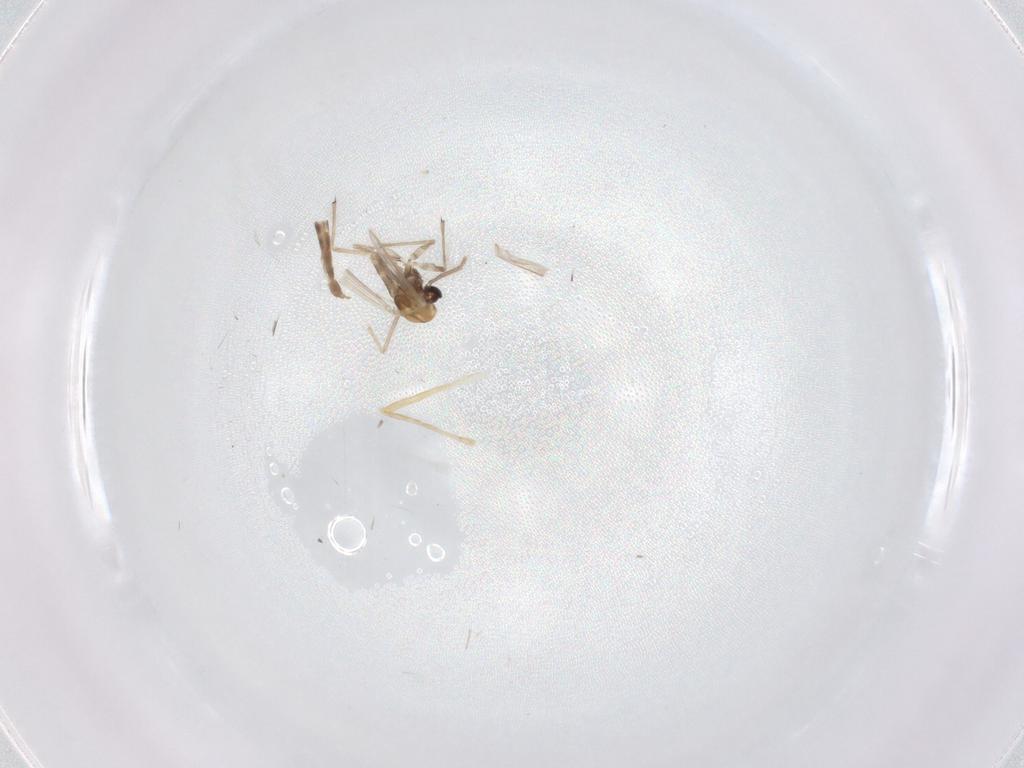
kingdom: Animalia
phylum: Arthropoda
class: Insecta
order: Diptera
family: Chironomidae
